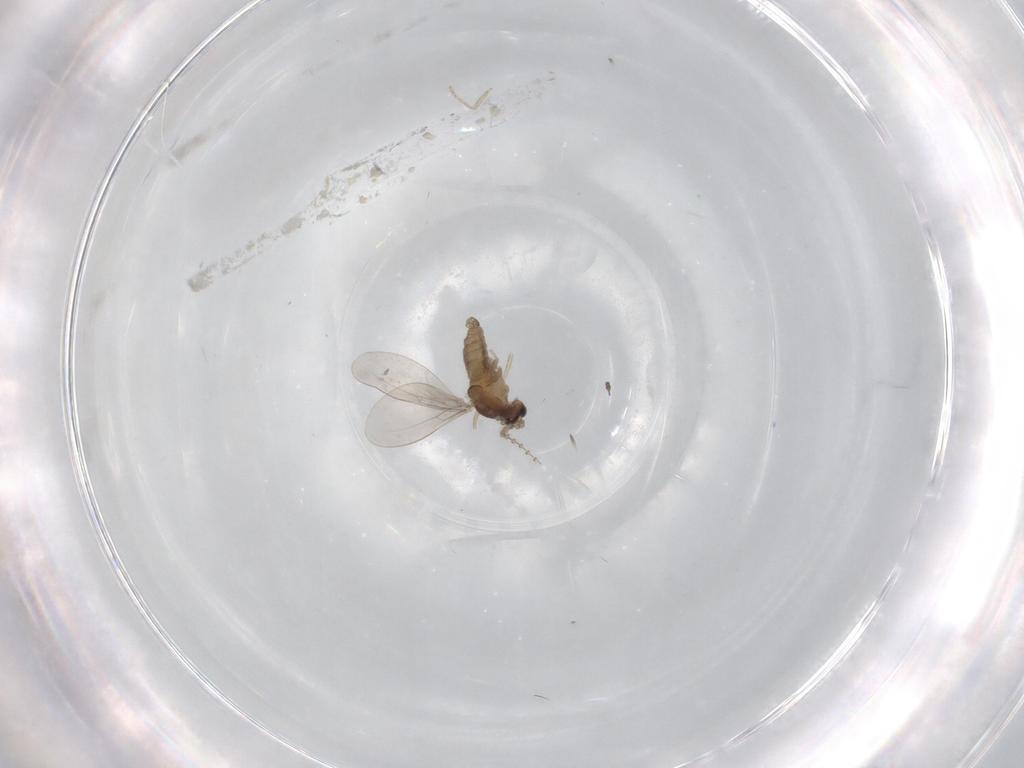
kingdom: Animalia
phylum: Arthropoda
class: Insecta
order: Diptera
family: Cecidomyiidae
